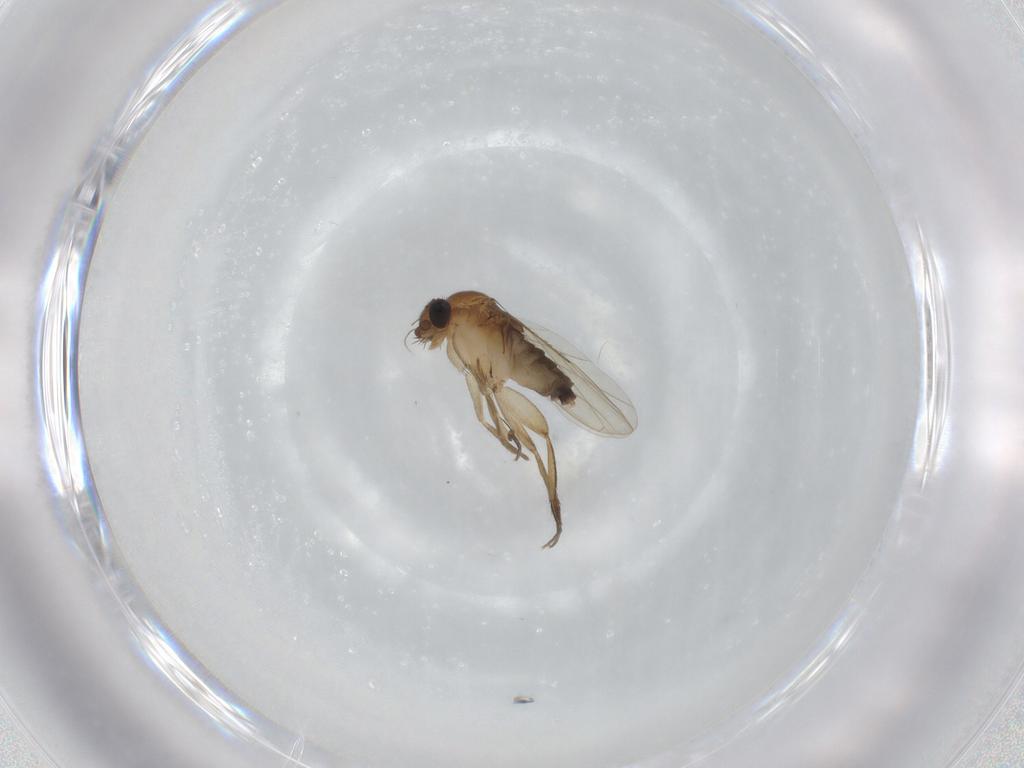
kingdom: Animalia
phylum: Arthropoda
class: Insecta
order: Diptera
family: Phoridae
